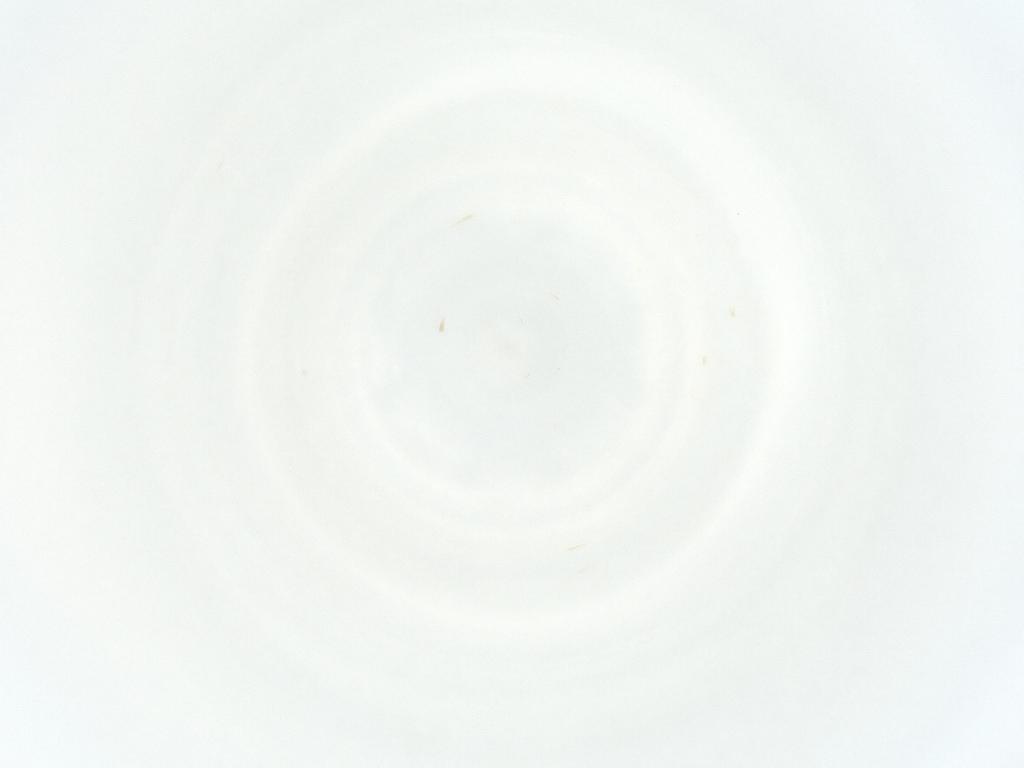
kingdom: Animalia
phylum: Arthropoda
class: Arachnida
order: Mesostigmata
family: Phytoseiidae
